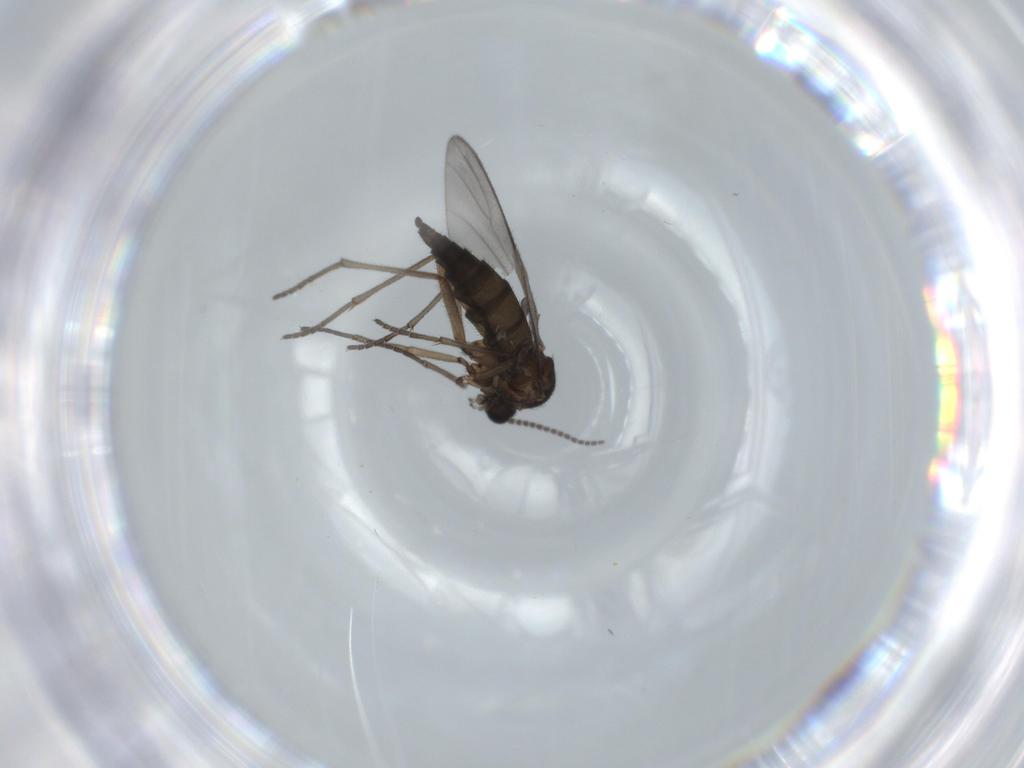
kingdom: Animalia
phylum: Arthropoda
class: Insecta
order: Diptera
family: Sciaridae
